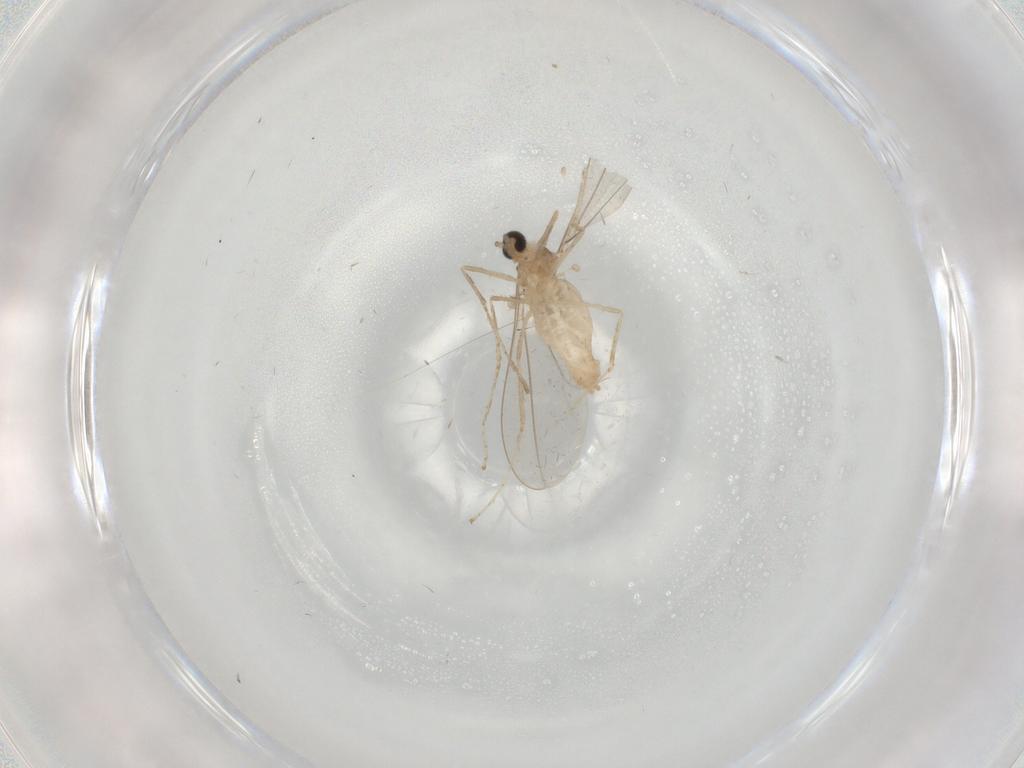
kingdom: Animalia
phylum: Arthropoda
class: Insecta
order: Diptera
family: Cecidomyiidae
